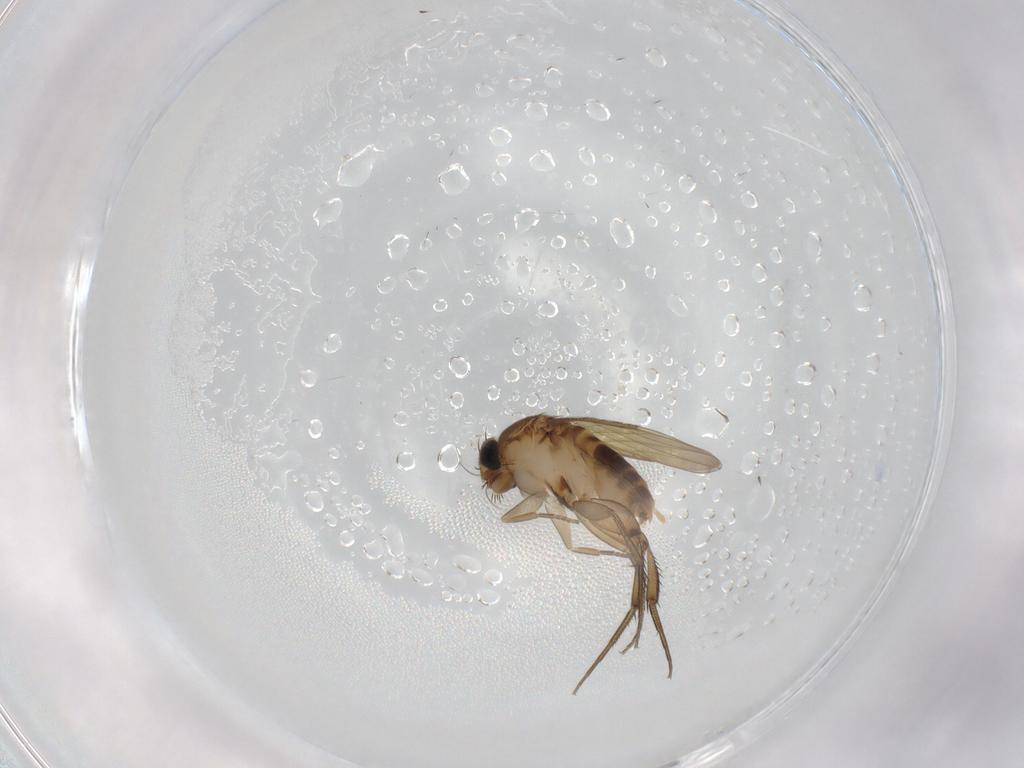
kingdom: Animalia
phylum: Arthropoda
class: Insecta
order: Diptera
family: Phoridae
